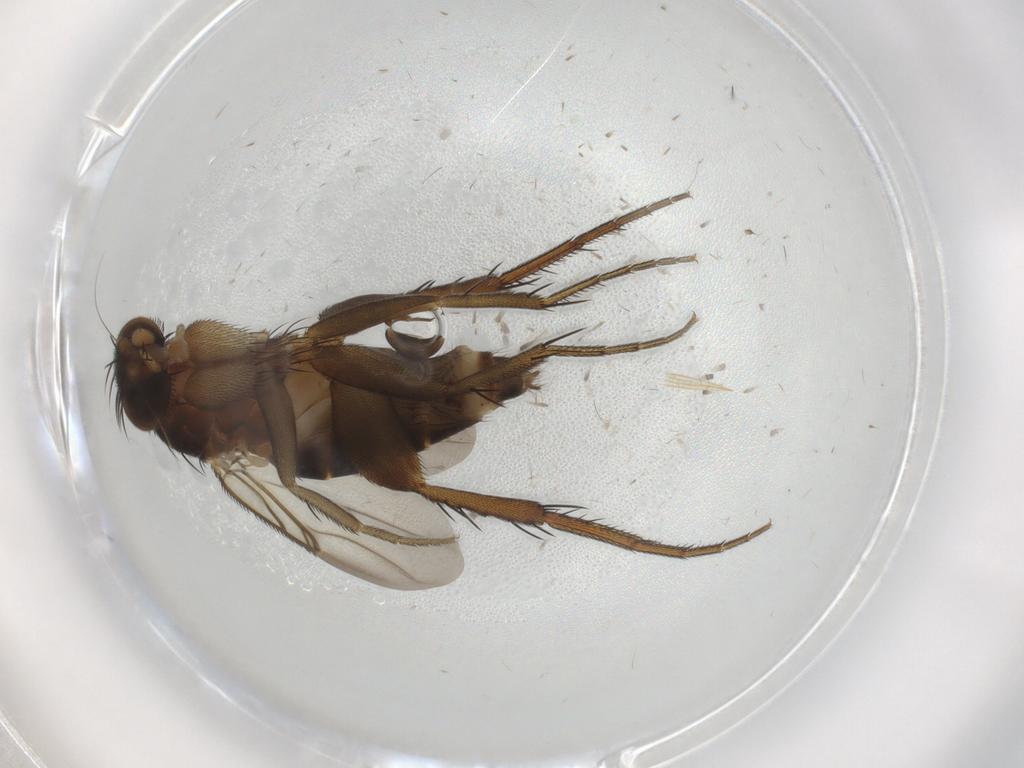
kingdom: Animalia
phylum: Arthropoda
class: Insecta
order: Diptera
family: Phoridae
